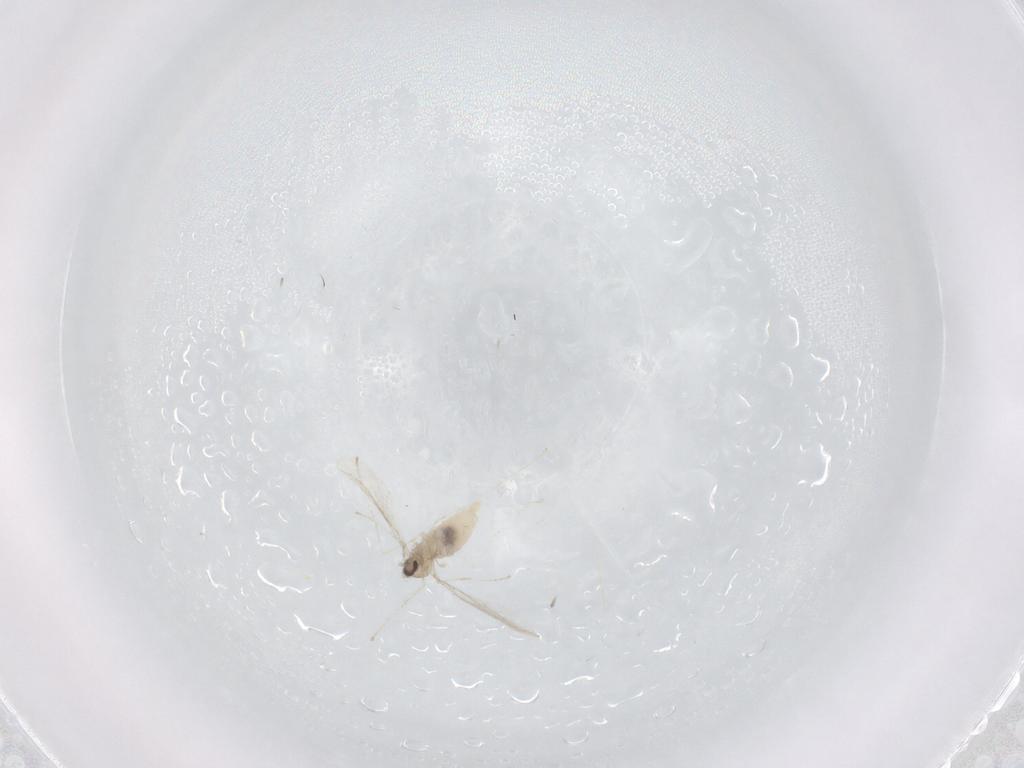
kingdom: Animalia
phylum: Arthropoda
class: Insecta
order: Diptera
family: Cecidomyiidae
